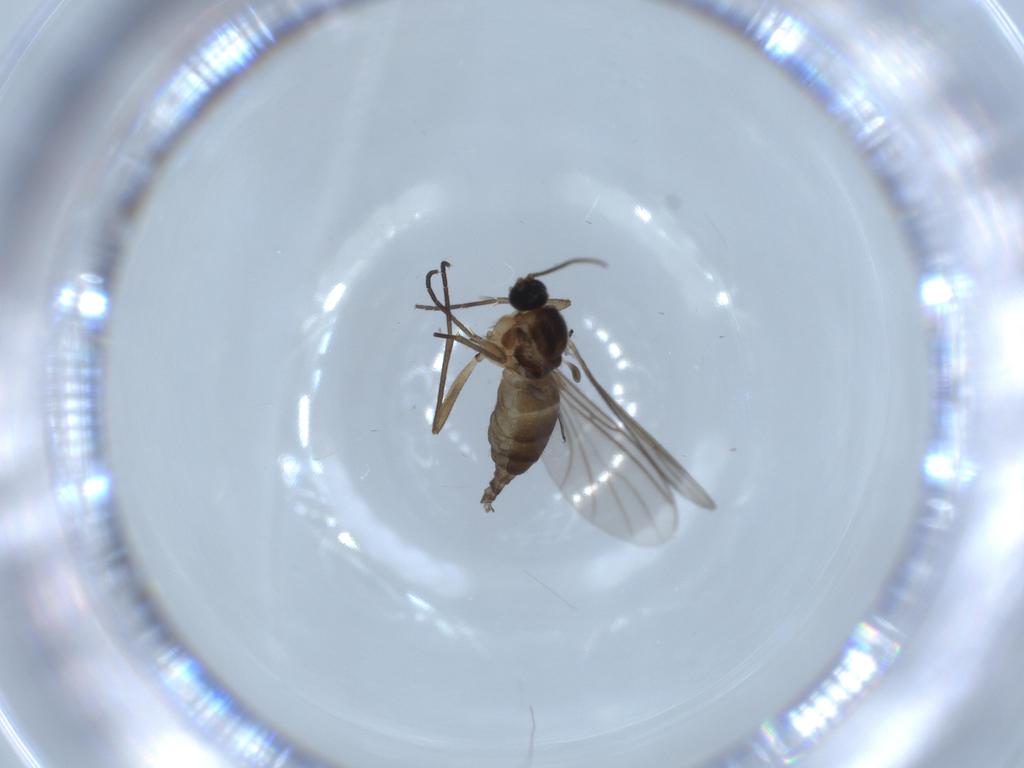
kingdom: Animalia
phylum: Arthropoda
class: Insecta
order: Diptera
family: Sciaridae
